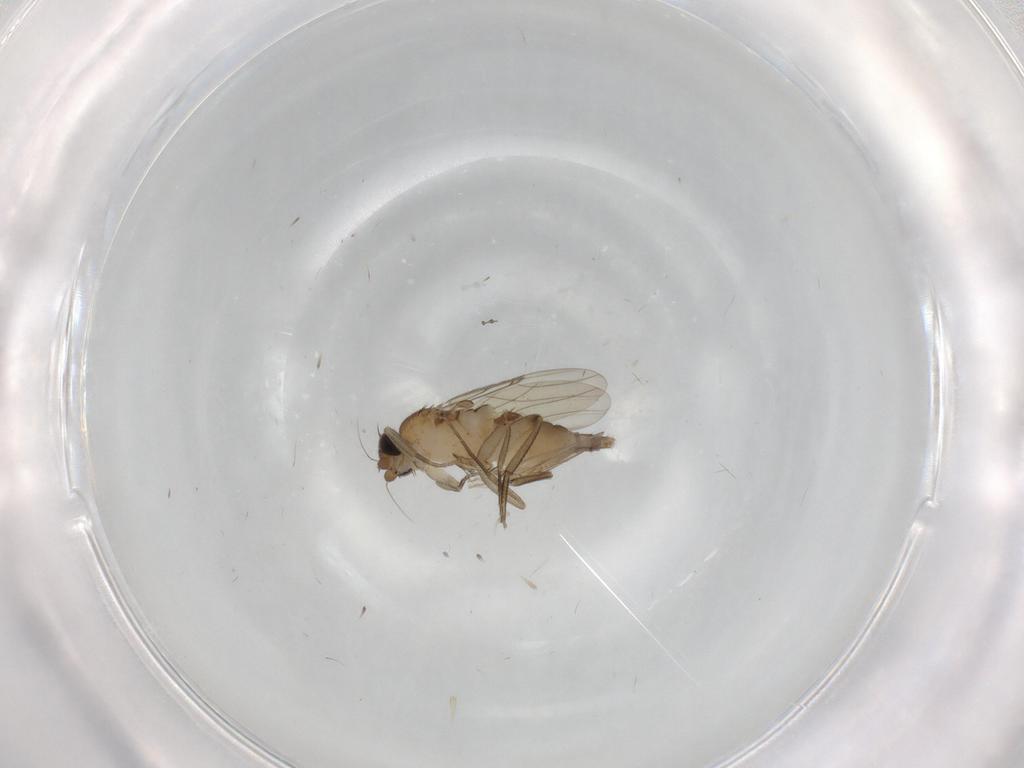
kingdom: Animalia
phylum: Arthropoda
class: Insecta
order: Diptera
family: Phoridae
